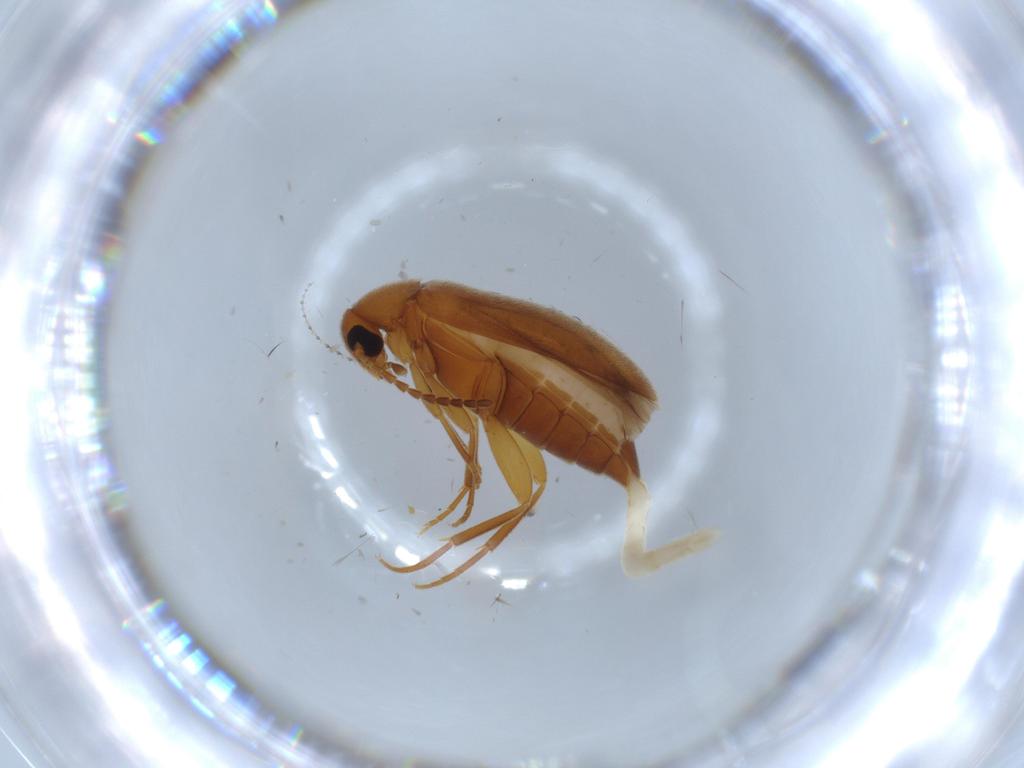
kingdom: Animalia
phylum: Arthropoda
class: Insecta
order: Coleoptera
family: Scraptiidae
